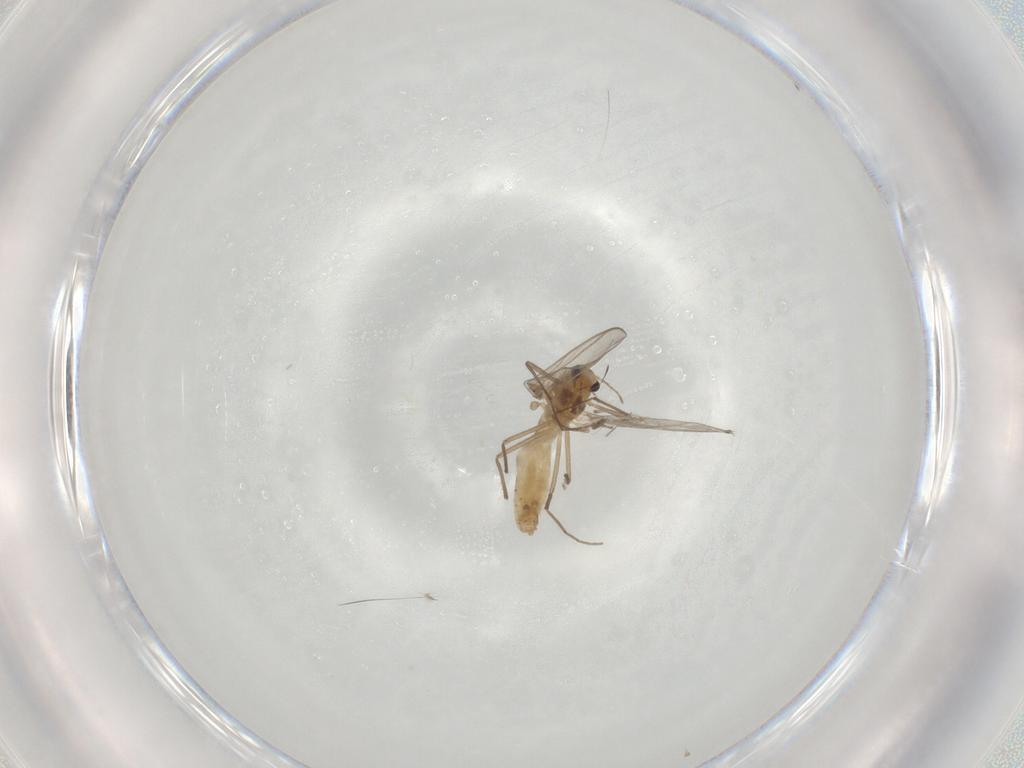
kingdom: Animalia
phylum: Arthropoda
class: Insecta
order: Diptera
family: Chironomidae
